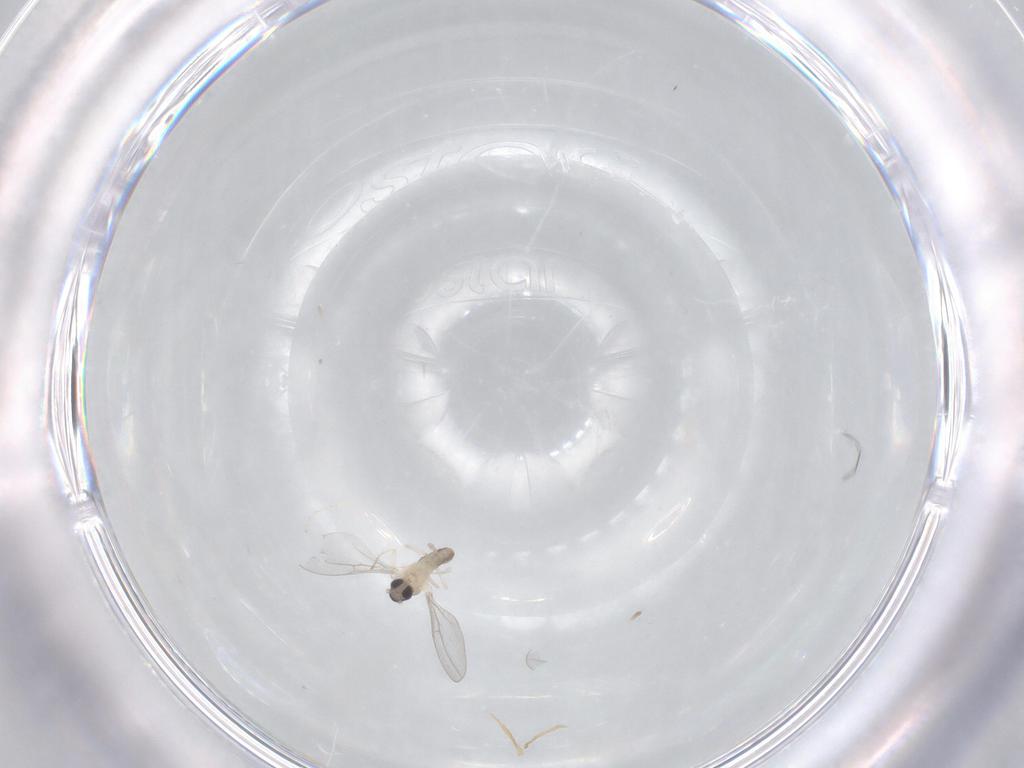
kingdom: Animalia
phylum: Arthropoda
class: Insecta
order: Diptera
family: Cecidomyiidae
